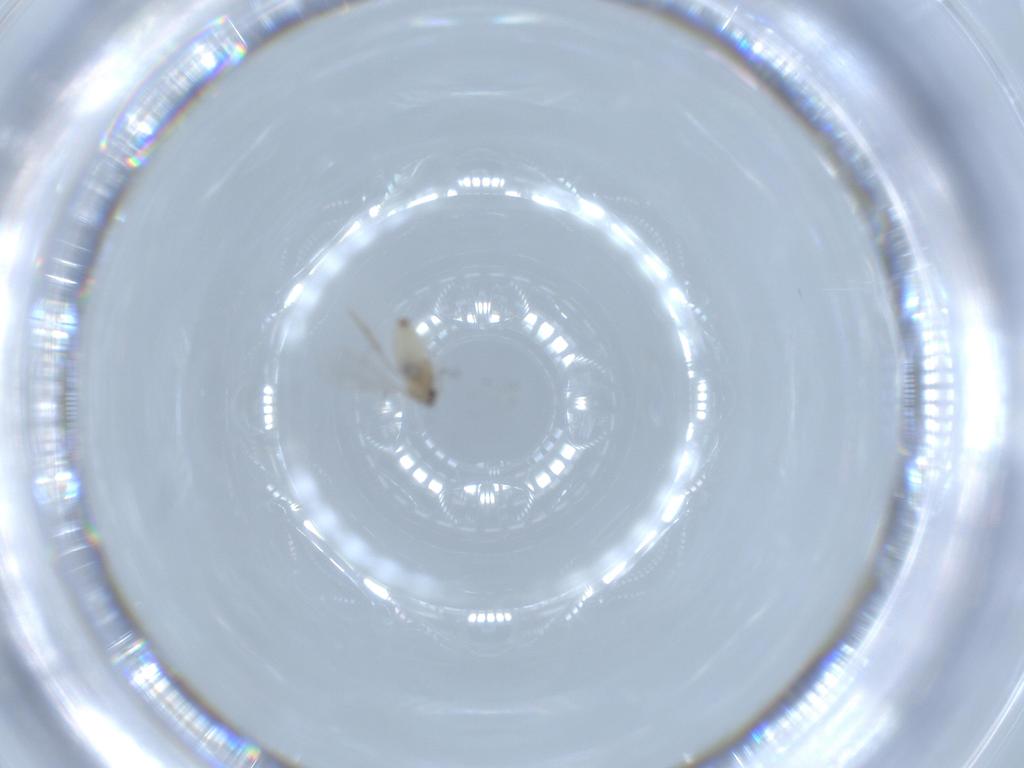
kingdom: Animalia
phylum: Arthropoda
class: Insecta
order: Diptera
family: Cecidomyiidae
